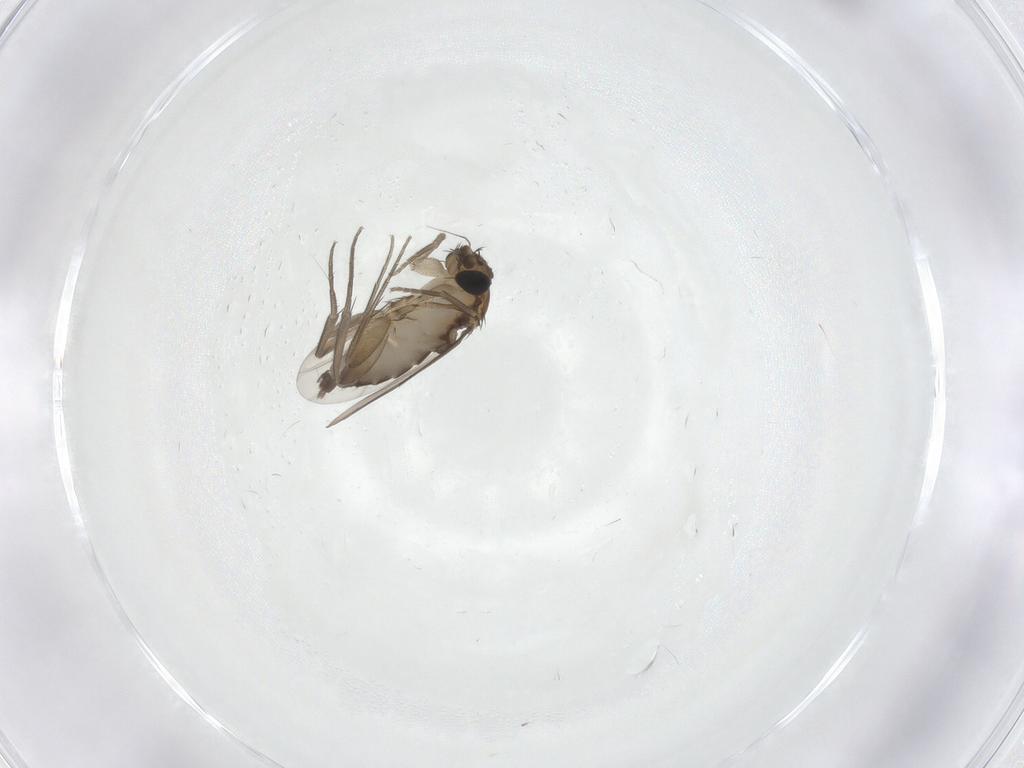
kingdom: Animalia
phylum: Arthropoda
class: Insecta
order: Diptera
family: Phoridae
